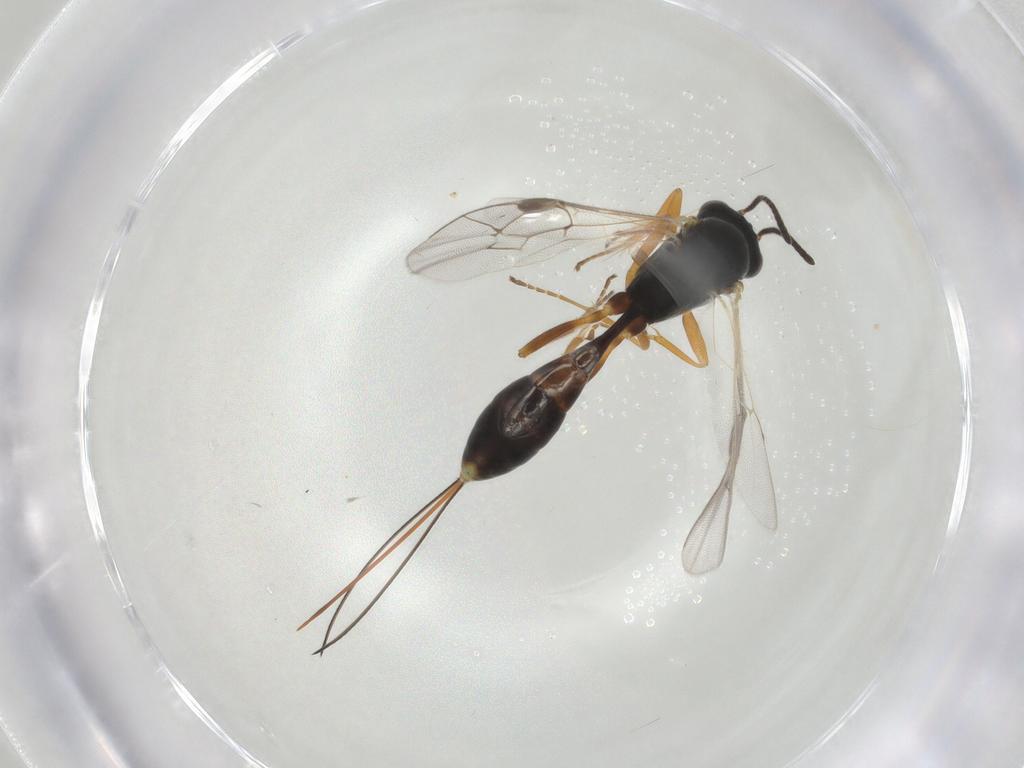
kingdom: Animalia
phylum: Arthropoda
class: Insecta
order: Hymenoptera
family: Ichneumonidae
